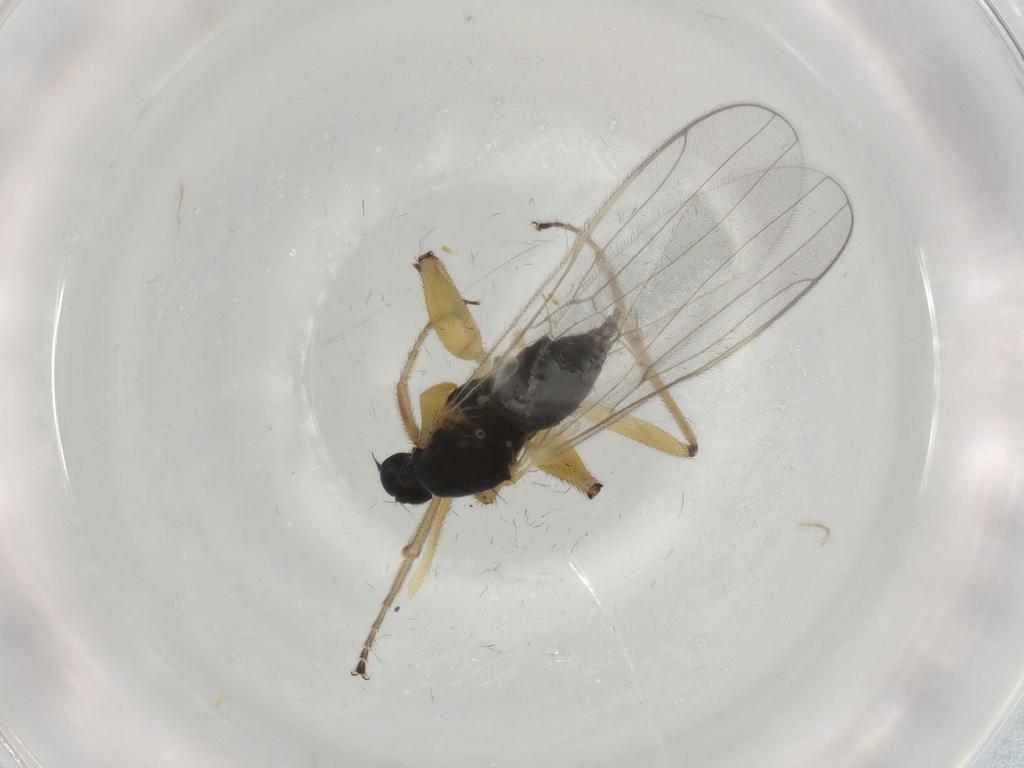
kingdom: Animalia
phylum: Arthropoda
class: Insecta
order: Diptera
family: Hybotidae
